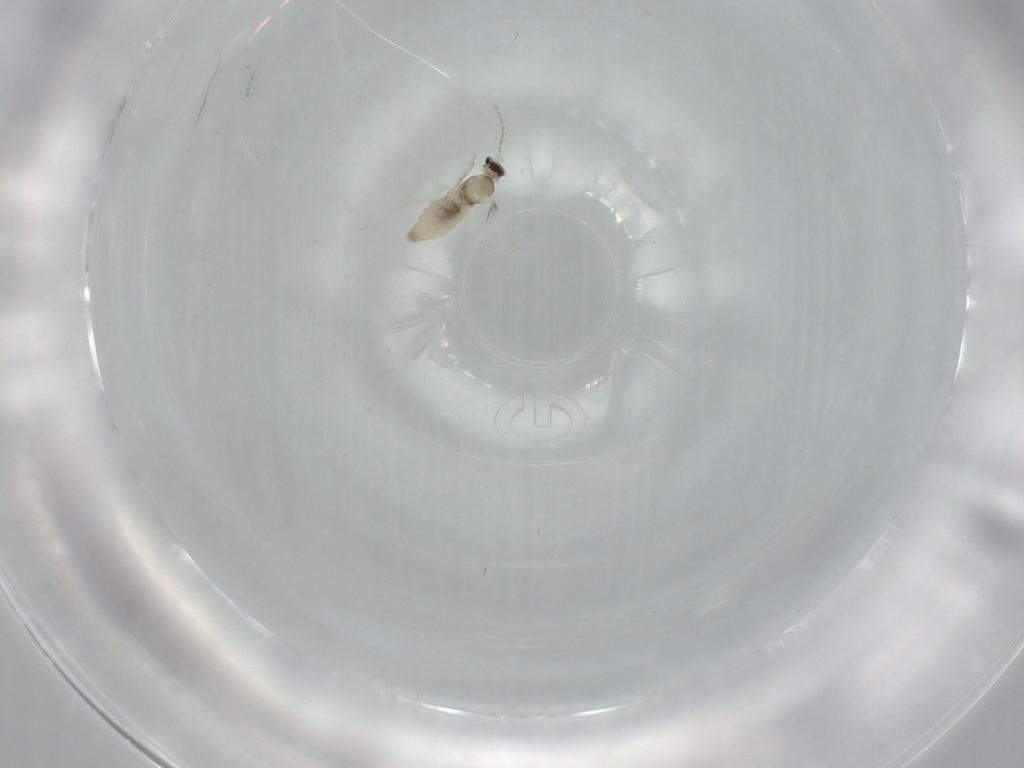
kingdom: Animalia
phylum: Arthropoda
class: Insecta
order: Diptera
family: Cecidomyiidae
